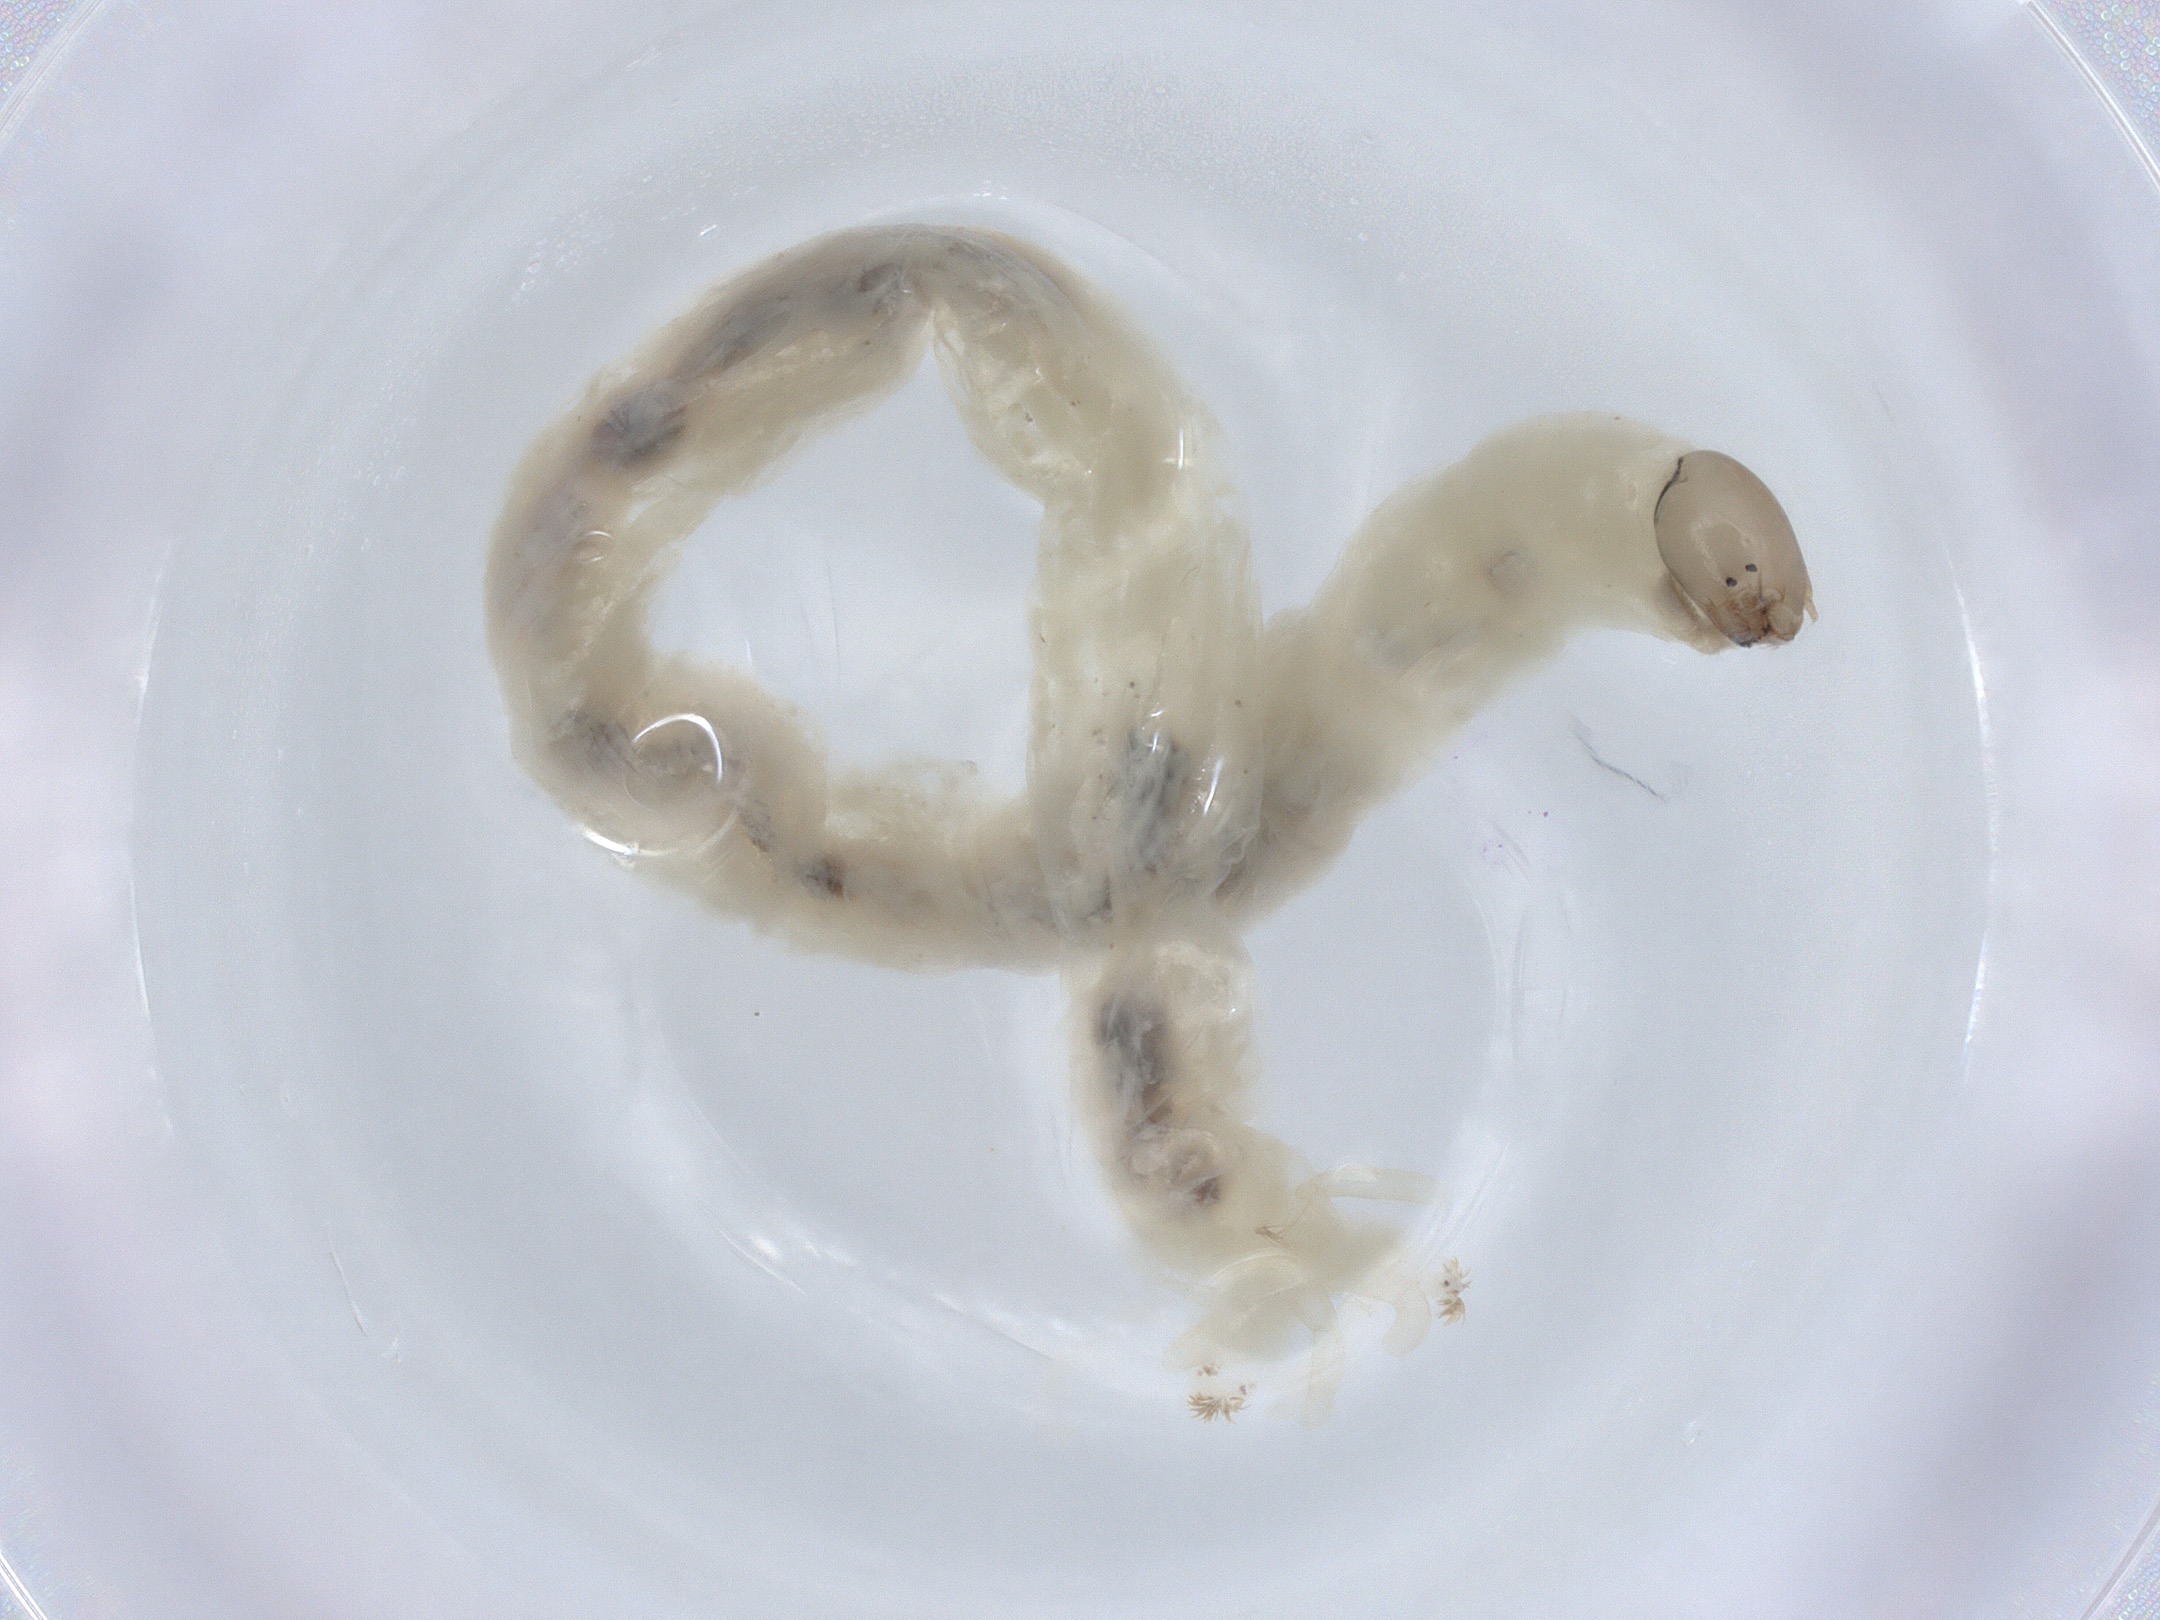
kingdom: Animalia
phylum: Arthropoda
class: Insecta
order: Diptera
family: Chironomidae
